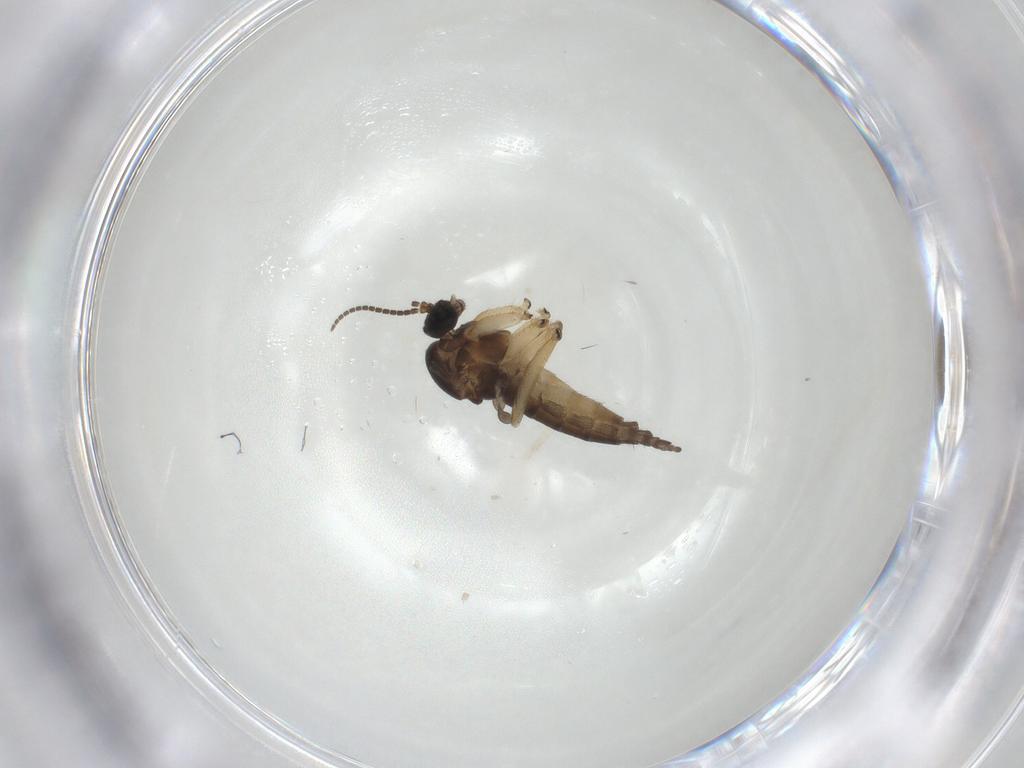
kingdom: Animalia
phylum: Arthropoda
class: Insecta
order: Diptera
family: Sciaridae
